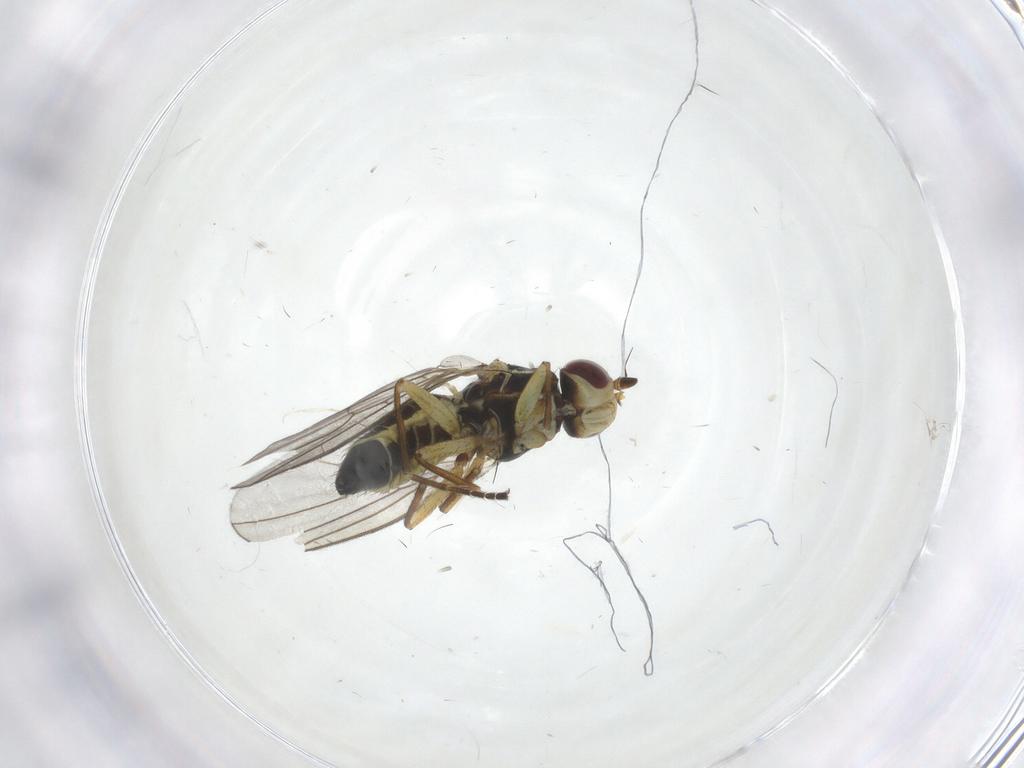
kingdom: Animalia
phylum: Arthropoda
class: Insecta
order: Diptera
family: Agromyzidae
